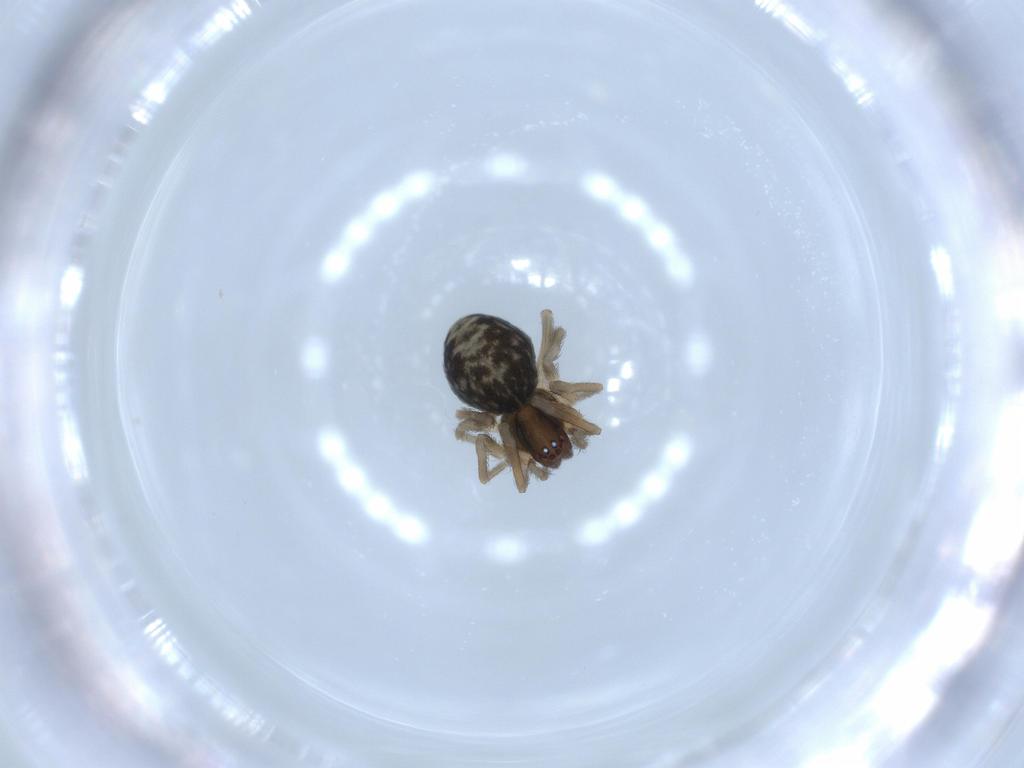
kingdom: Animalia
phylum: Arthropoda
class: Arachnida
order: Araneae
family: Dictynidae
